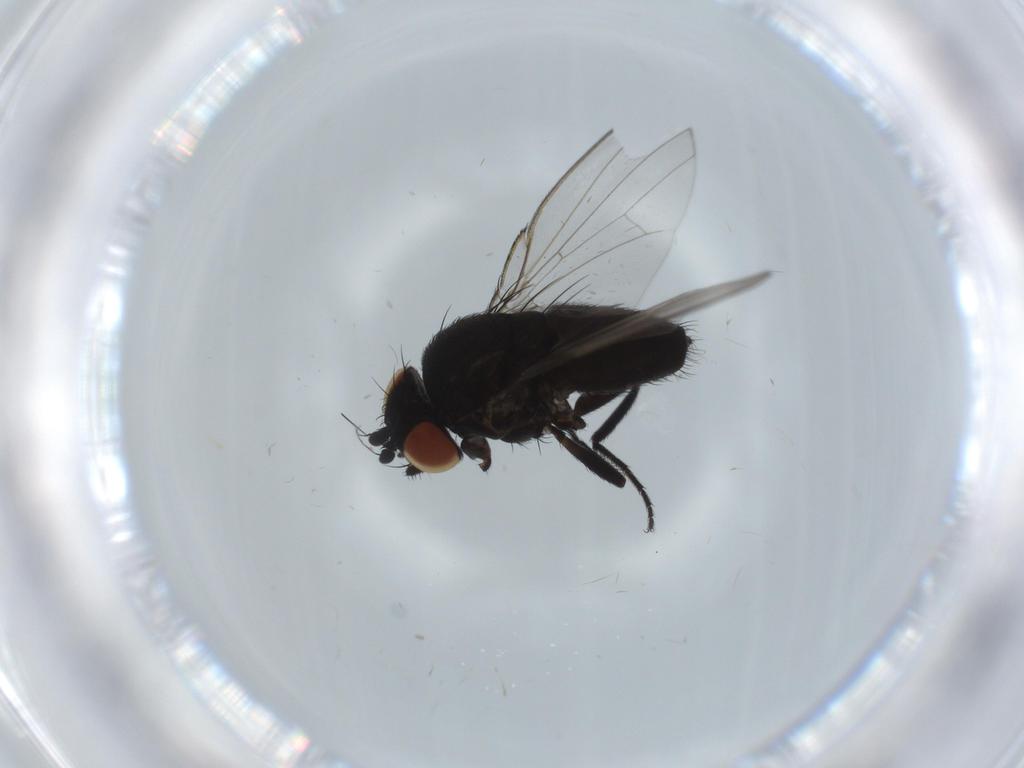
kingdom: Animalia
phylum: Arthropoda
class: Insecta
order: Diptera
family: Milichiidae
